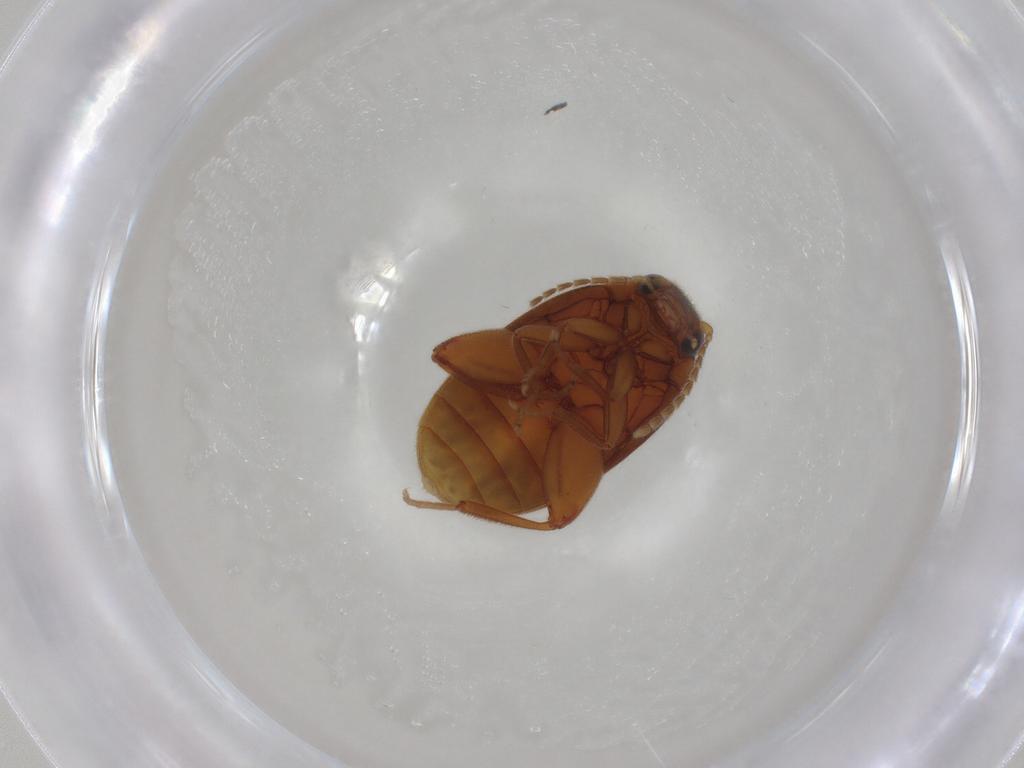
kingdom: Animalia
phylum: Arthropoda
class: Insecta
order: Coleoptera
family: Scirtidae
